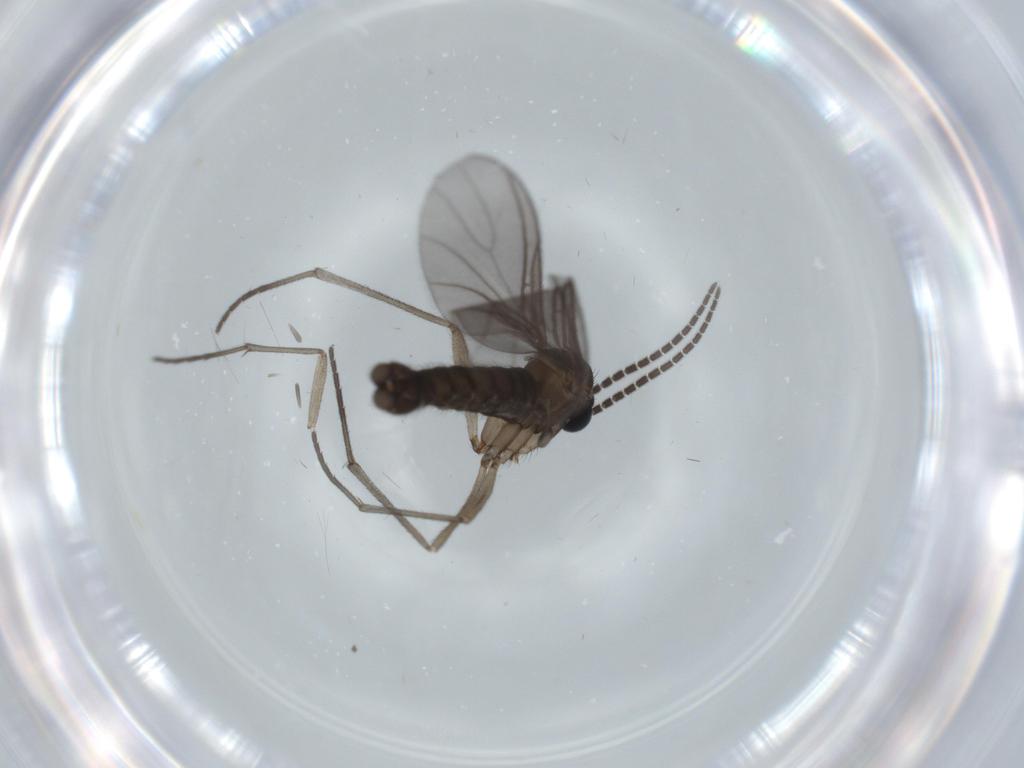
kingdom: Animalia
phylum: Arthropoda
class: Insecta
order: Diptera
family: Sciaridae
